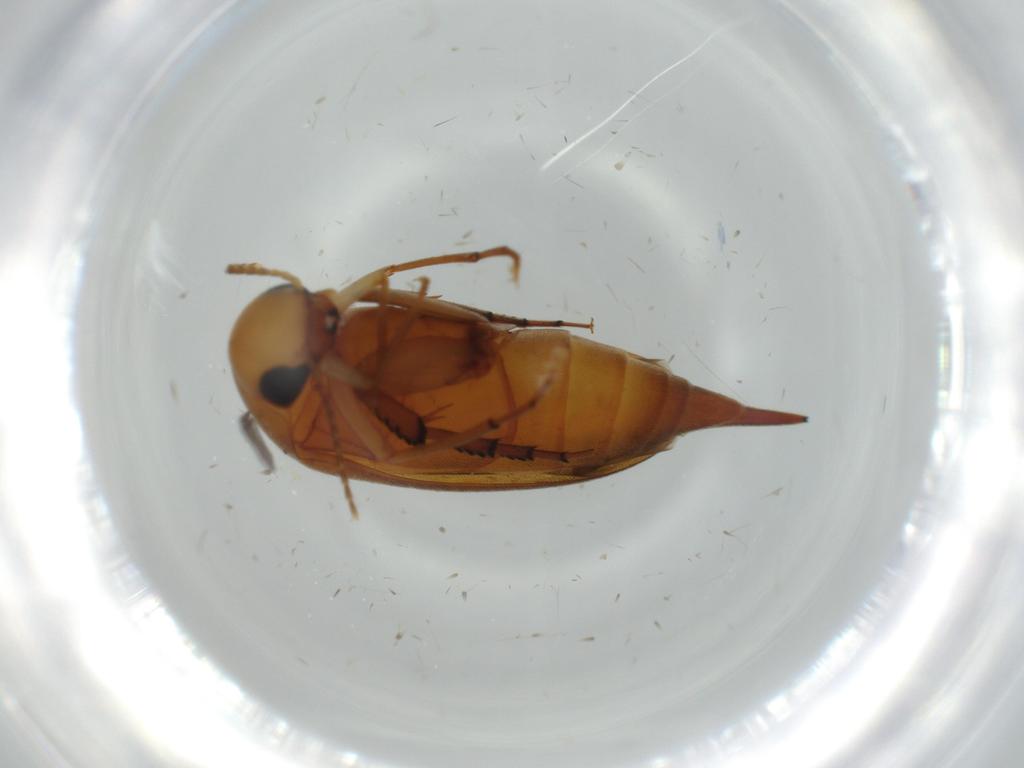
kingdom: Animalia
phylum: Arthropoda
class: Insecta
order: Coleoptera
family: Mordellidae
